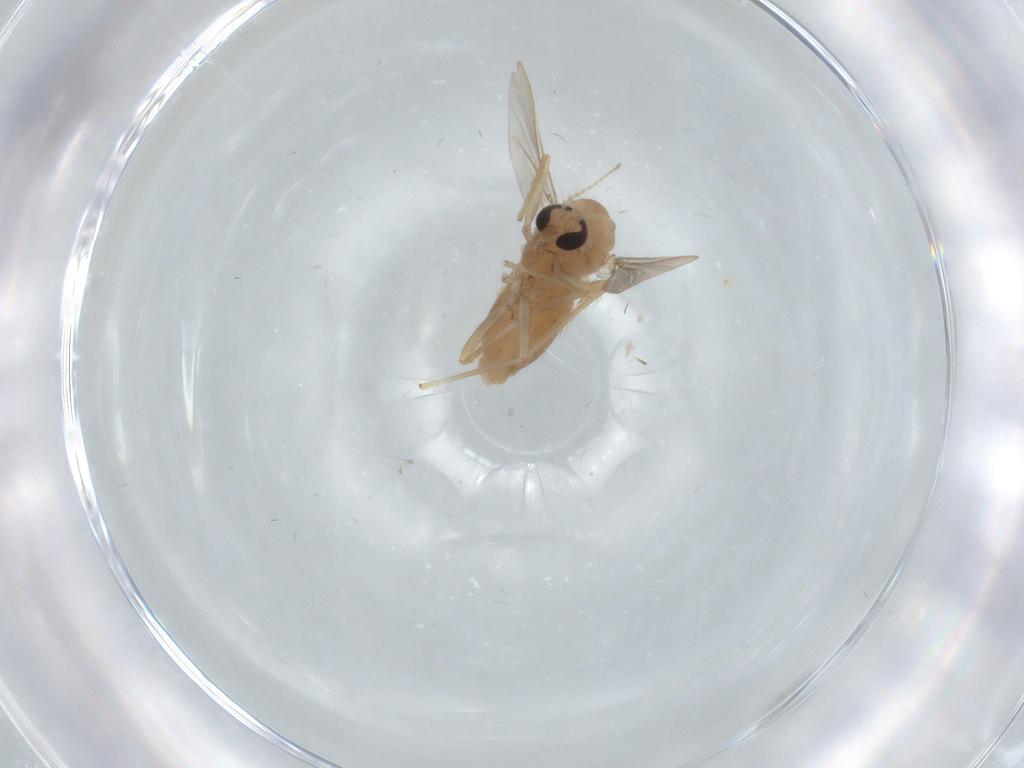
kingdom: Animalia
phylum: Arthropoda
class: Insecta
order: Diptera
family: Chironomidae
